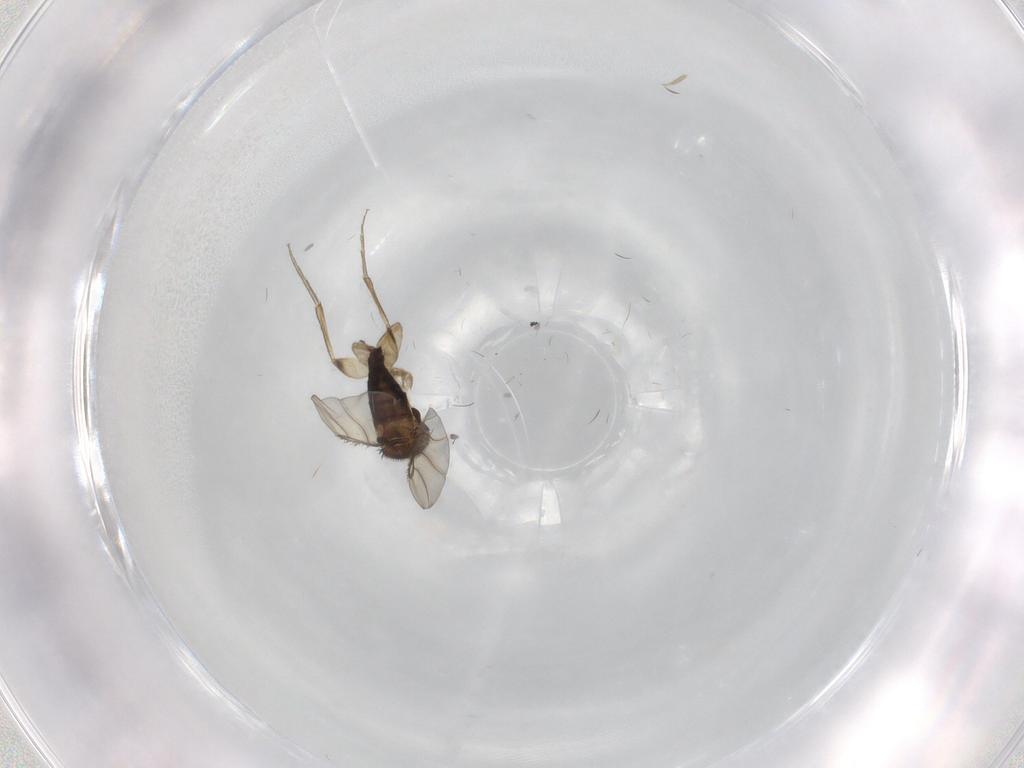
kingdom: Animalia
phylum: Arthropoda
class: Insecta
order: Diptera
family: Phoridae
